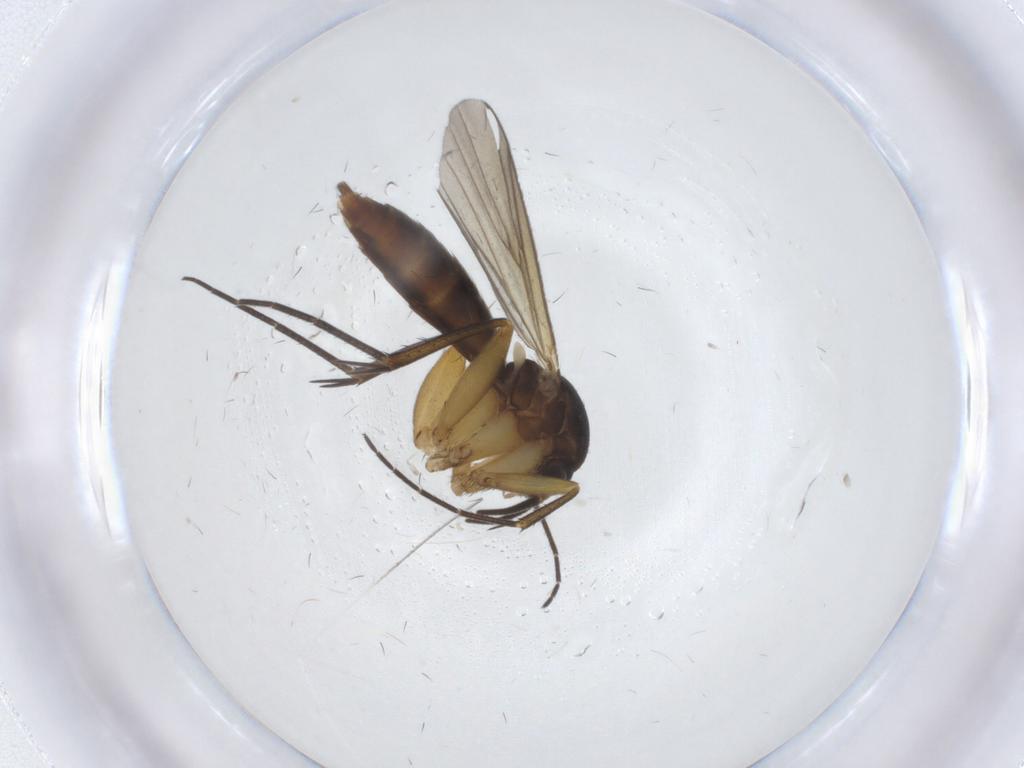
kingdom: Animalia
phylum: Arthropoda
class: Insecta
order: Diptera
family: Mycetophilidae
